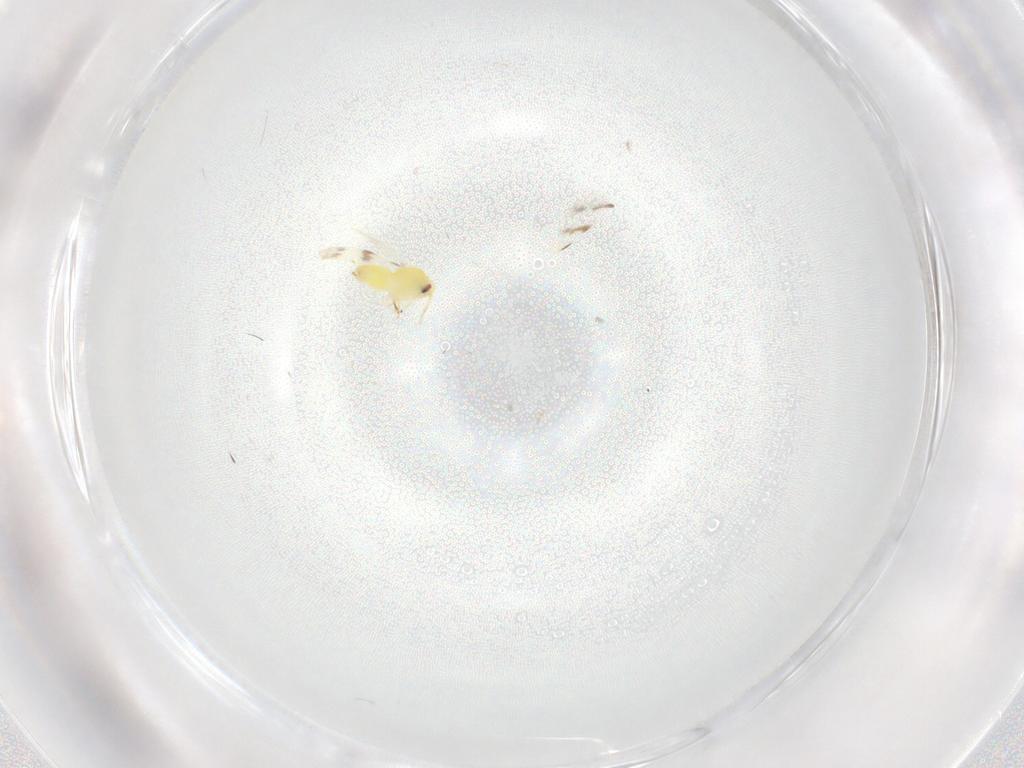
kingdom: Animalia
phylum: Arthropoda
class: Insecta
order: Hemiptera
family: Aleyrodidae
